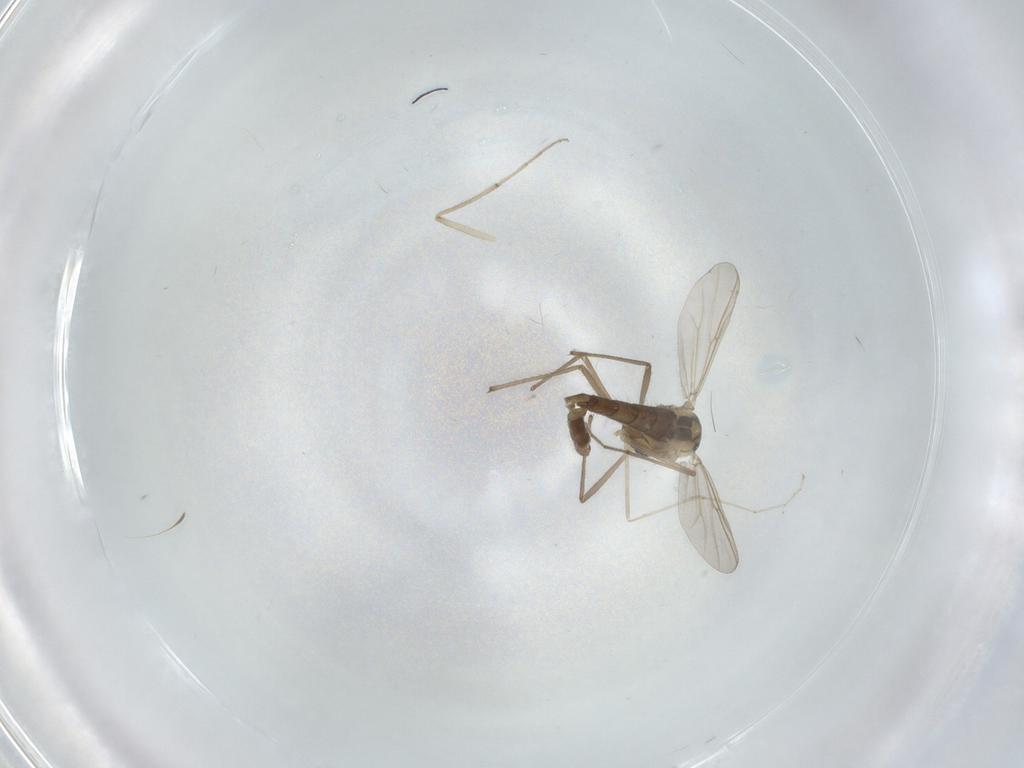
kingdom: Animalia
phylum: Arthropoda
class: Insecta
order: Diptera
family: Chironomidae
